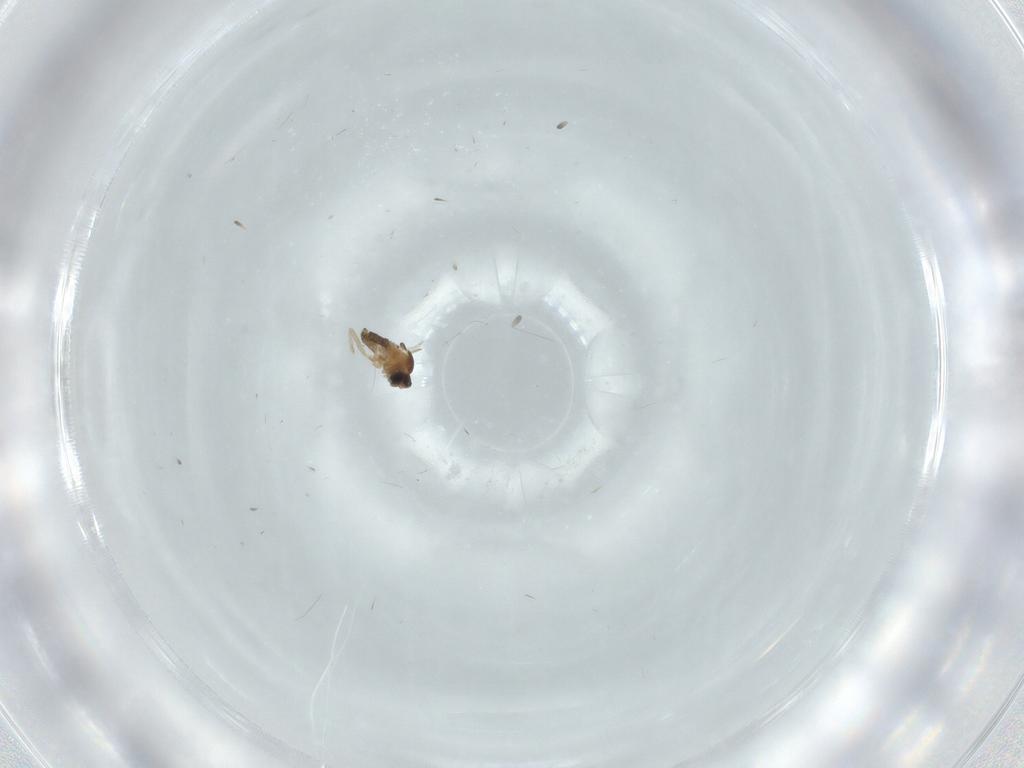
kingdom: Animalia
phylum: Arthropoda
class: Insecta
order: Diptera
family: Cecidomyiidae
